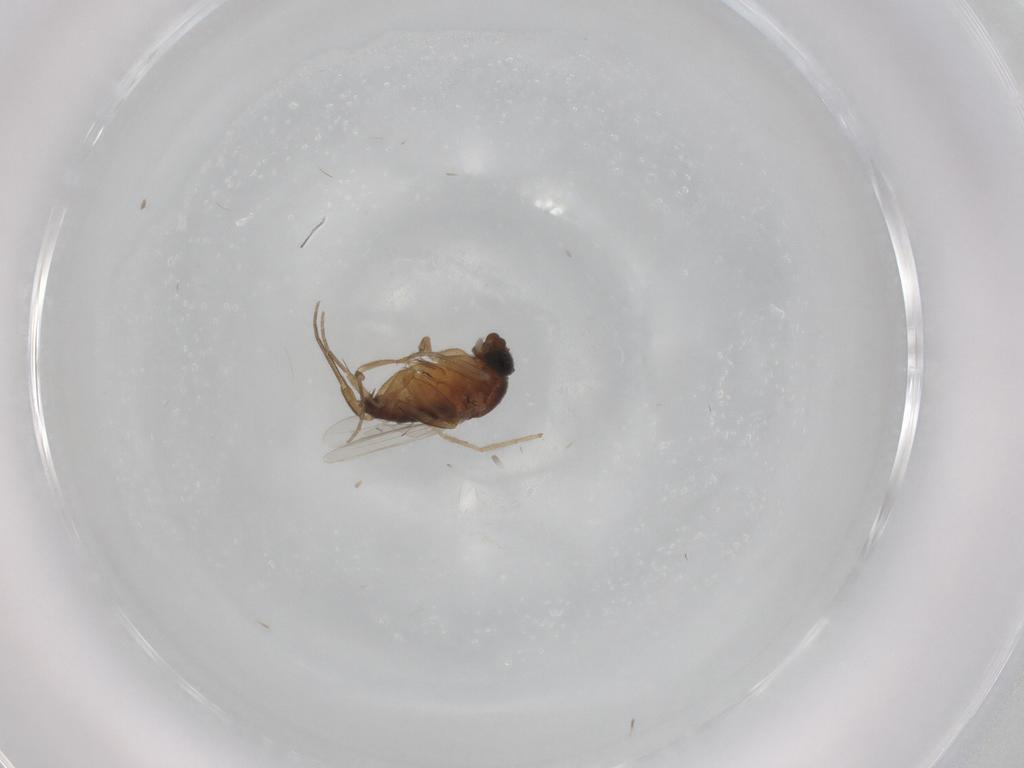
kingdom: Animalia
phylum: Arthropoda
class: Insecta
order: Diptera
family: Phoridae
